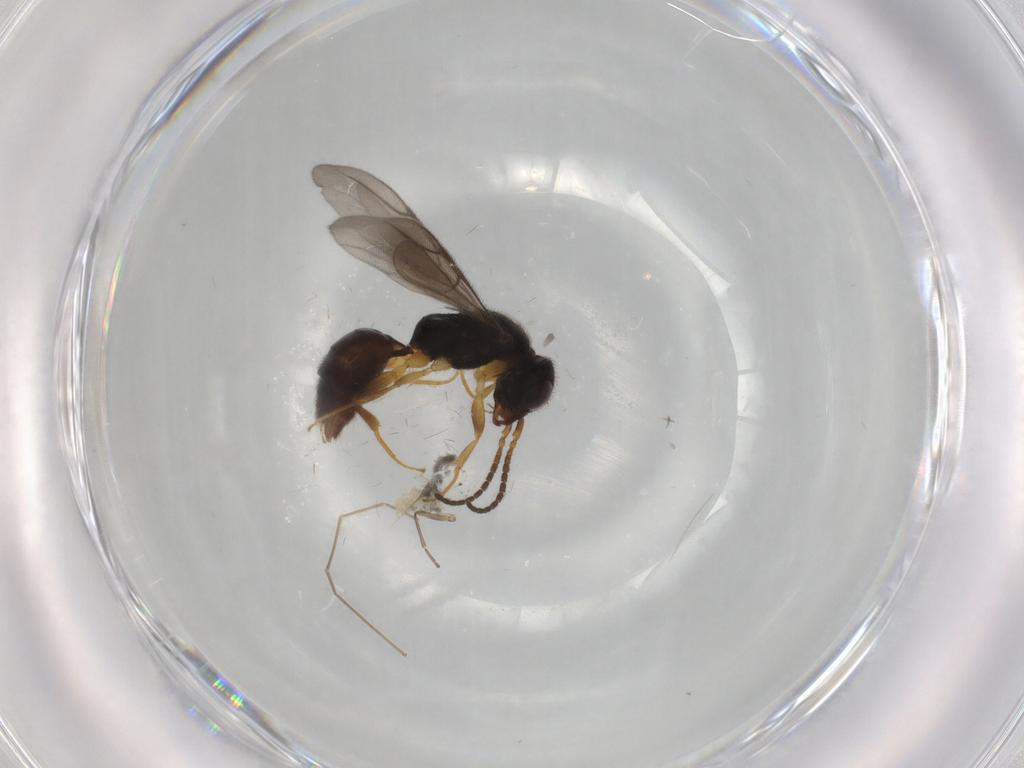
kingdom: Animalia
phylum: Arthropoda
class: Insecta
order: Hymenoptera
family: Bethylidae
